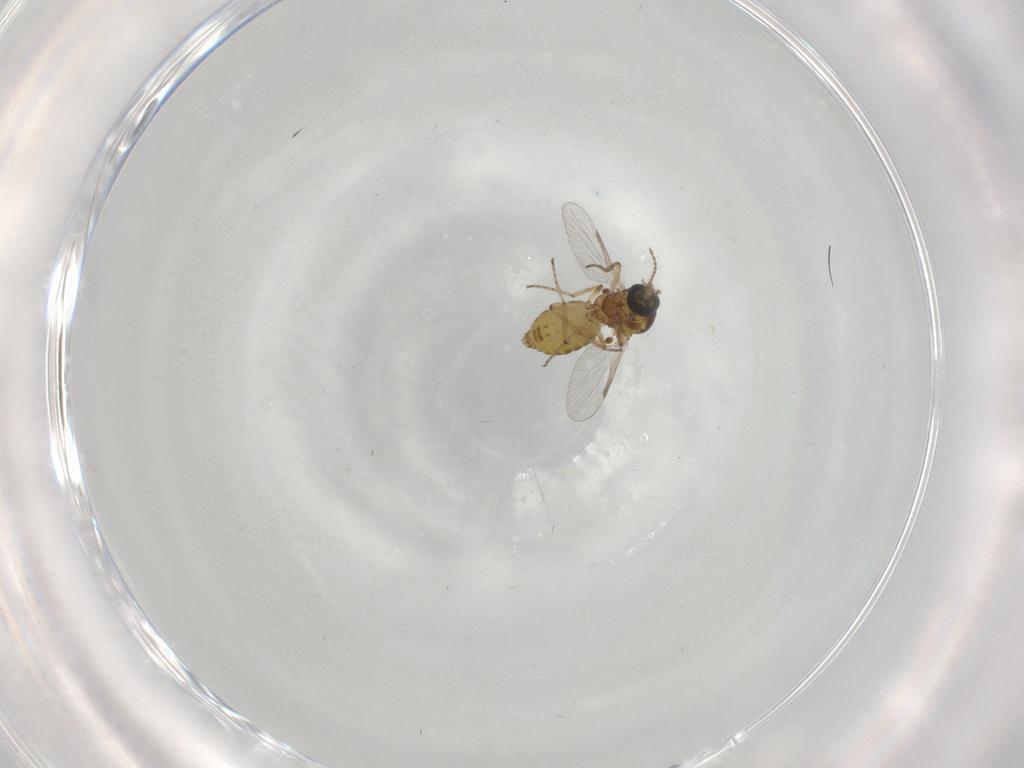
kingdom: Animalia
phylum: Arthropoda
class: Insecta
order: Diptera
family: Ceratopogonidae
